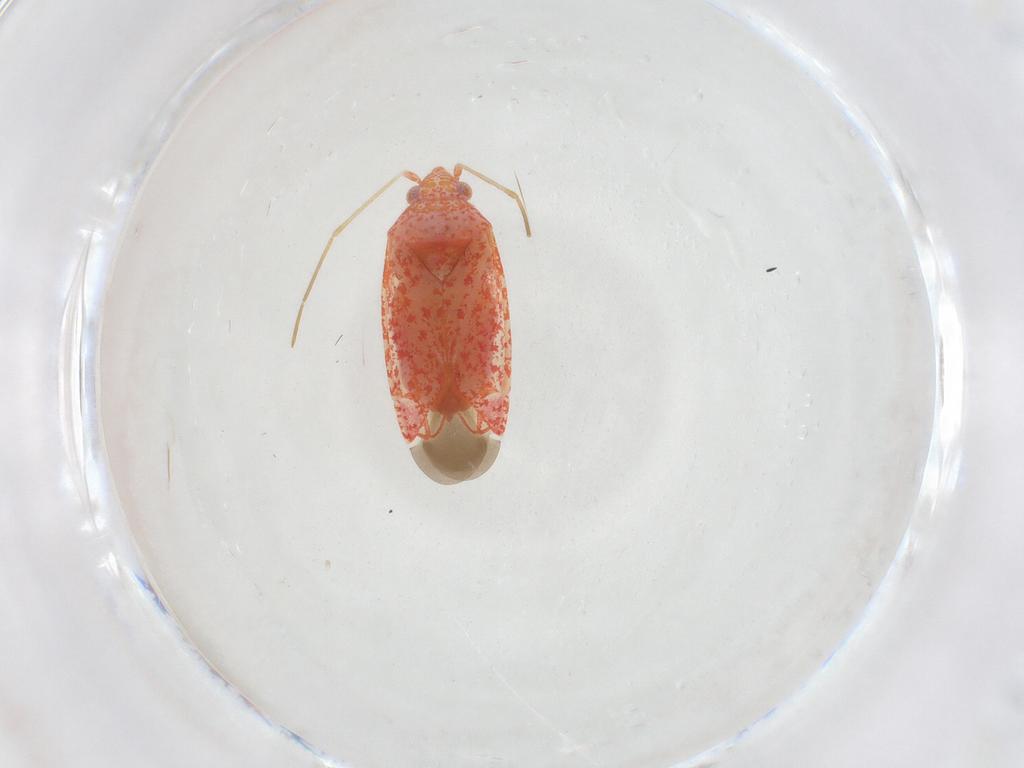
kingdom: Animalia
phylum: Arthropoda
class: Insecta
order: Hemiptera
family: Miridae
